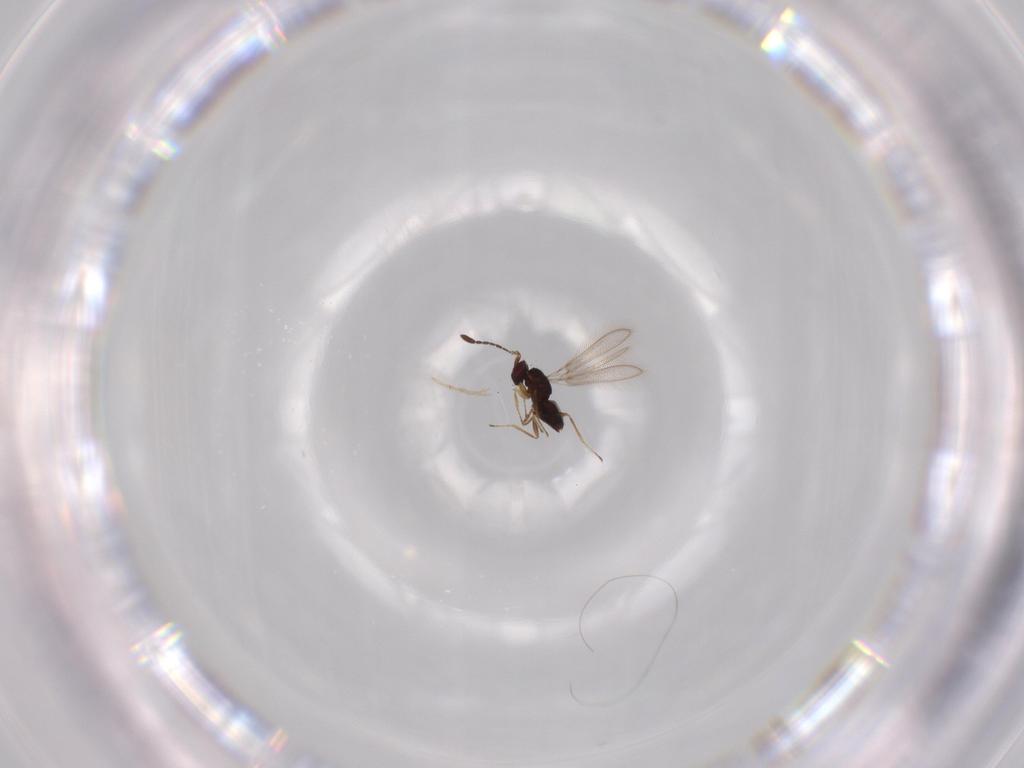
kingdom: Animalia
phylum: Arthropoda
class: Insecta
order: Hymenoptera
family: Mymaridae
